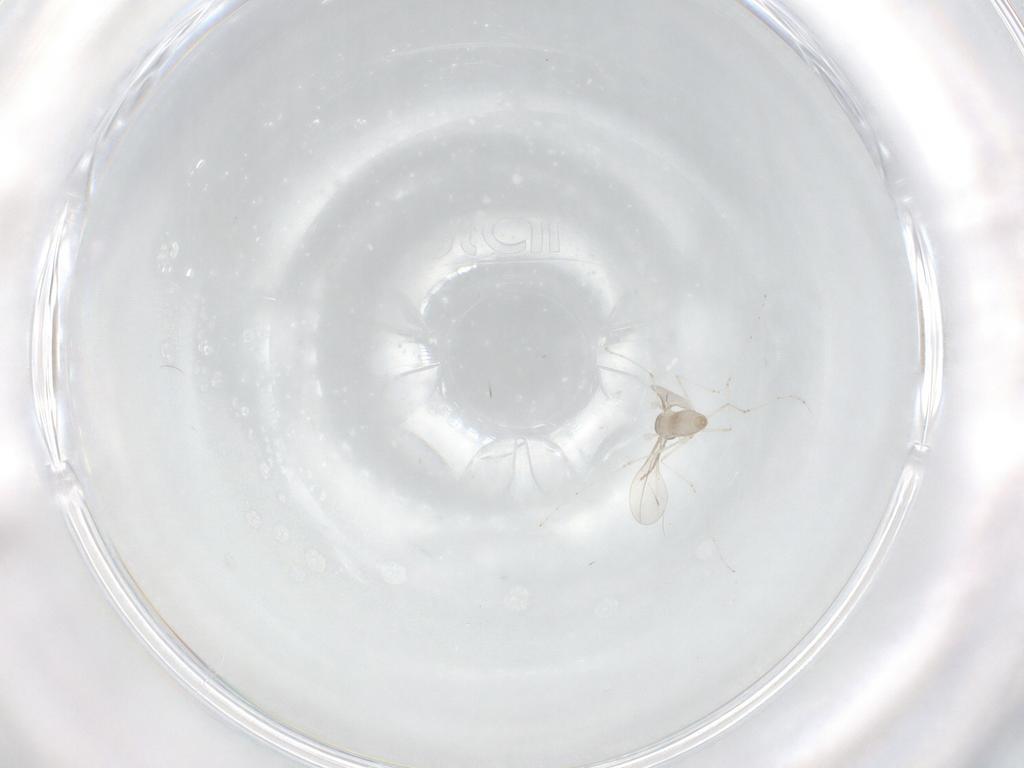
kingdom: Animalia
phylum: Arthropoda
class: Insecta
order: Diptera
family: Cecidomyiidae
